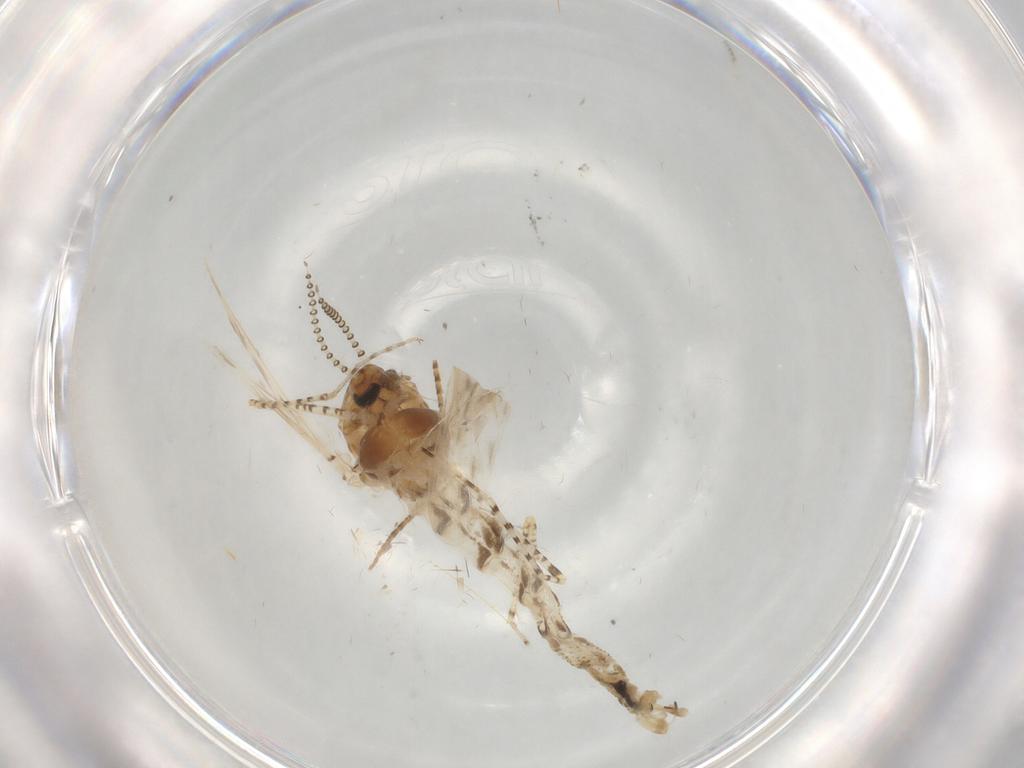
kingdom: Animalia
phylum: Arthropoda
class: Insecta
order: Diptera
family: Chaoboridae
